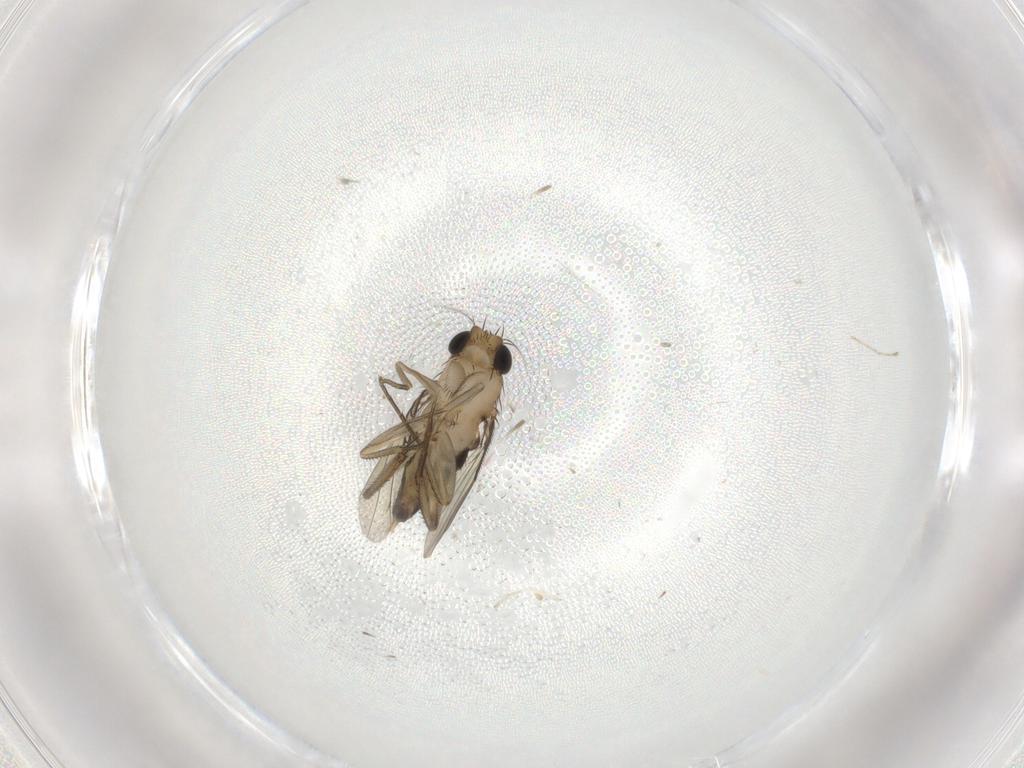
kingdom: Animalia
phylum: Arthropoda
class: Insecta
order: Diptera
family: Phoridae
